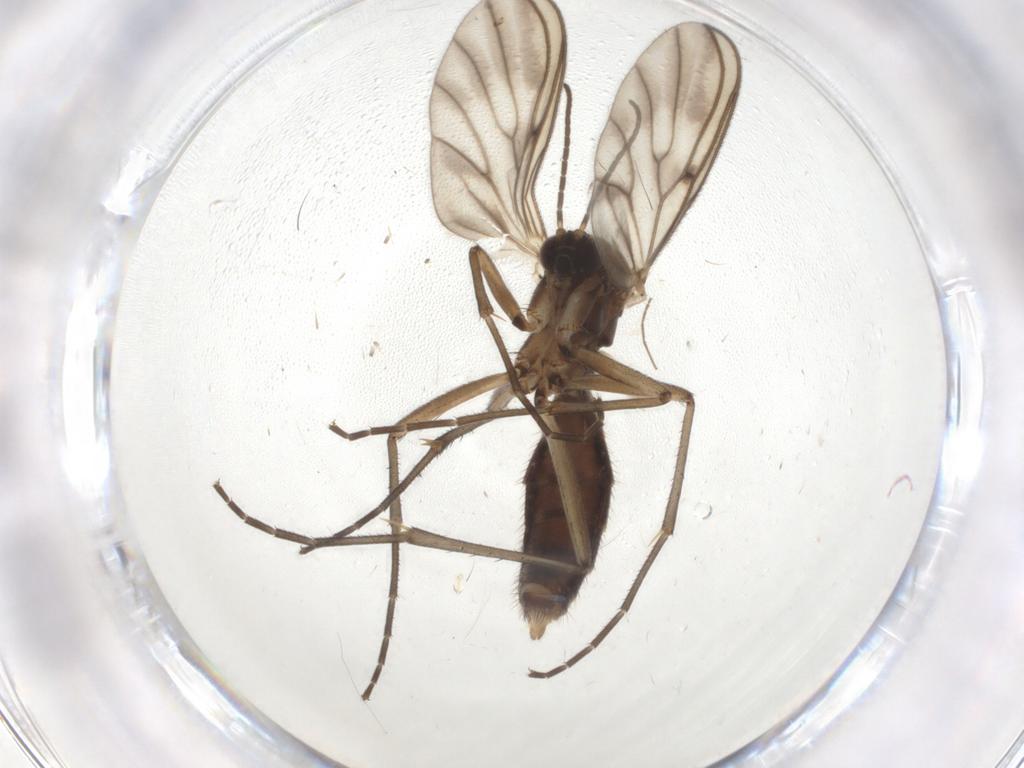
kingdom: Animalia
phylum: Arthropoda
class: Insecta
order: Diptera
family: Mycetophilidae
